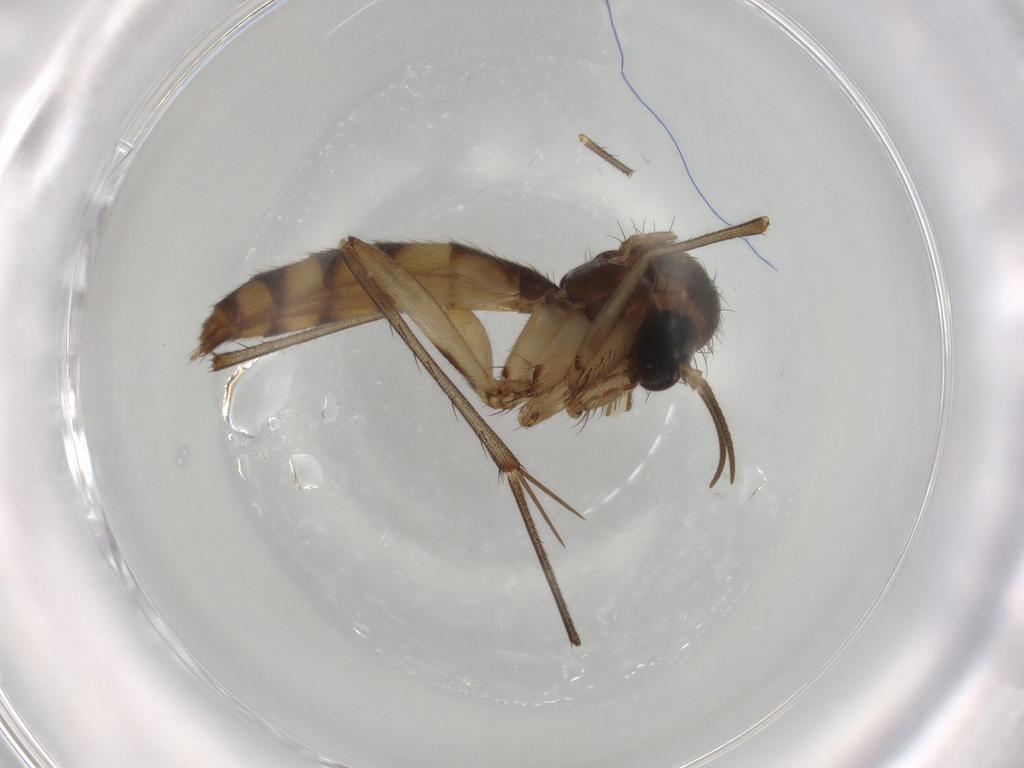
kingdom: Animalia
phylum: Arthropoda
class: Insecta
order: Diptera
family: Mycetophilidae
